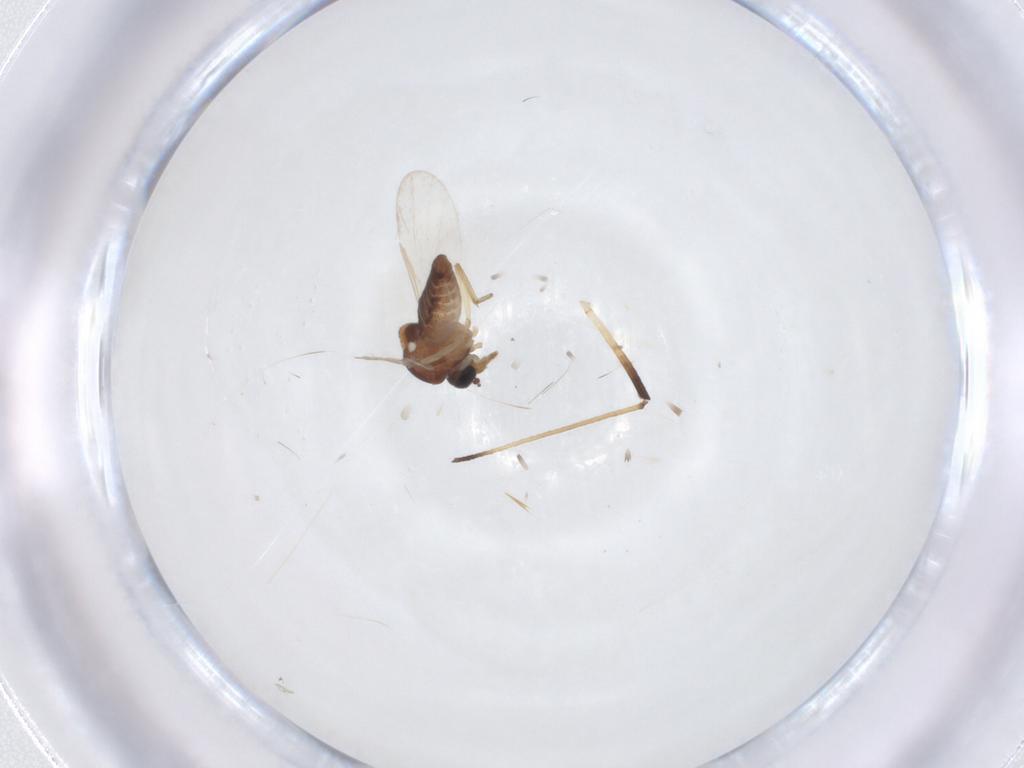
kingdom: Animalia
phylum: Arthropoda
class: Insecta
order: Diptera
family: Ceratopogonidae
